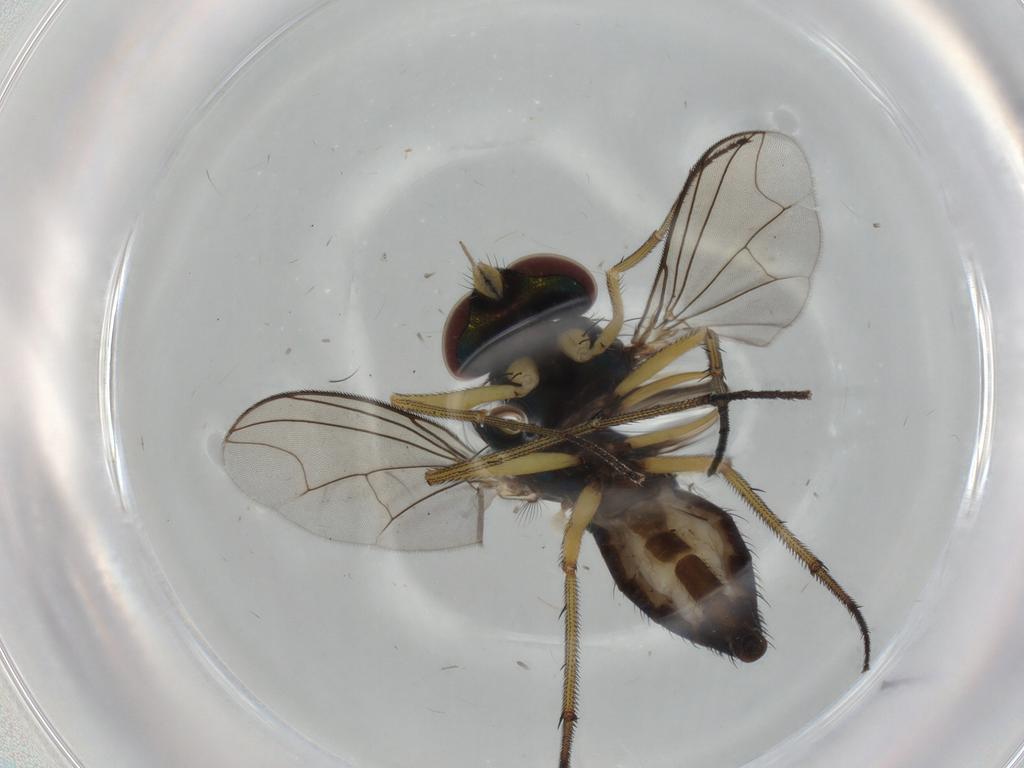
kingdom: Animalia
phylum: Arthropoda
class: Insecta
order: Diptera
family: Dolichopodidae
